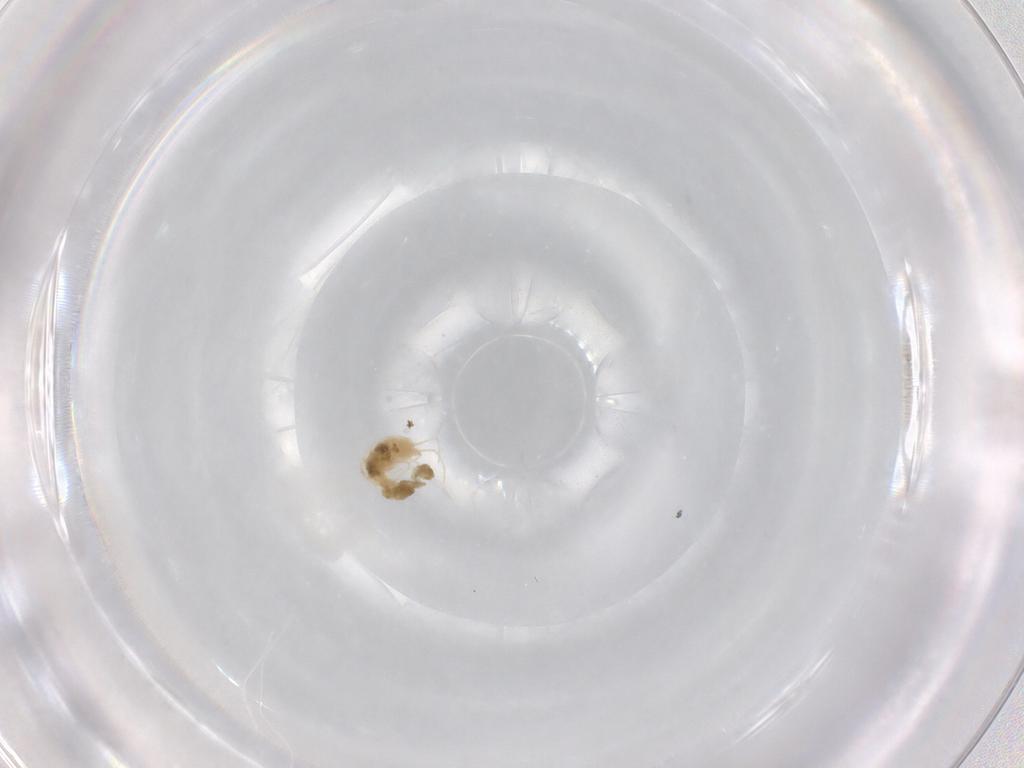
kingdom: Animalia
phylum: Arthropoda
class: Arachnida
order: Trombidiformes
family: Tetranychidae
